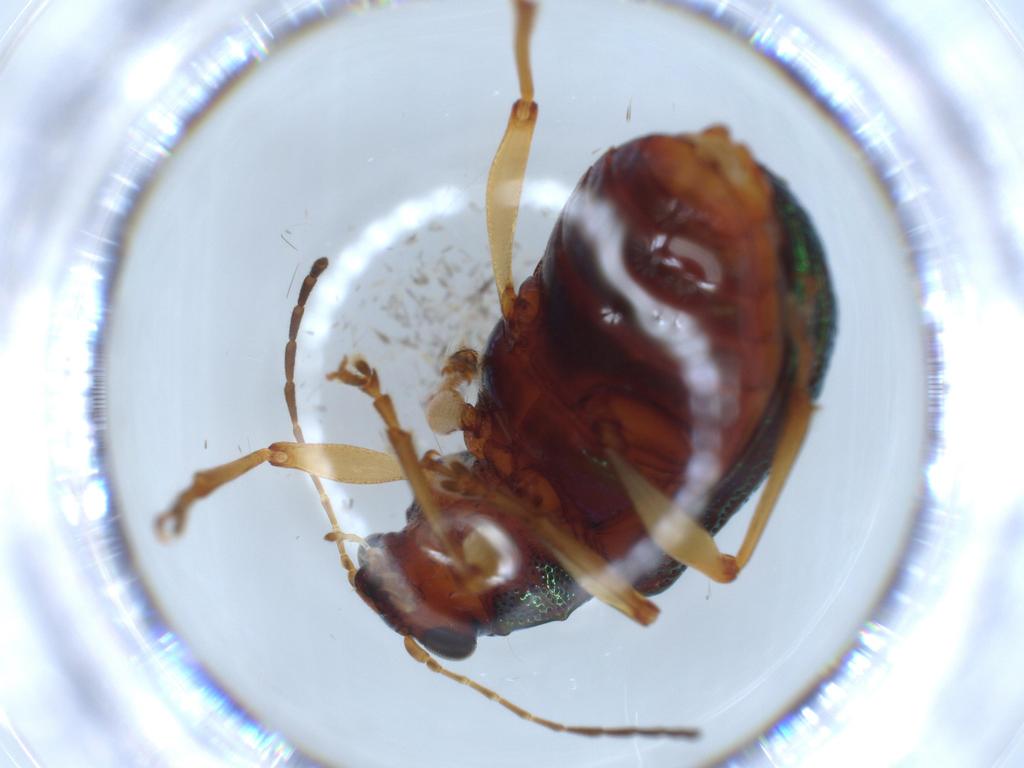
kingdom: Animalia
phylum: Arthropoda
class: Insecta
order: Coleoptera
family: Chrysomelidae
